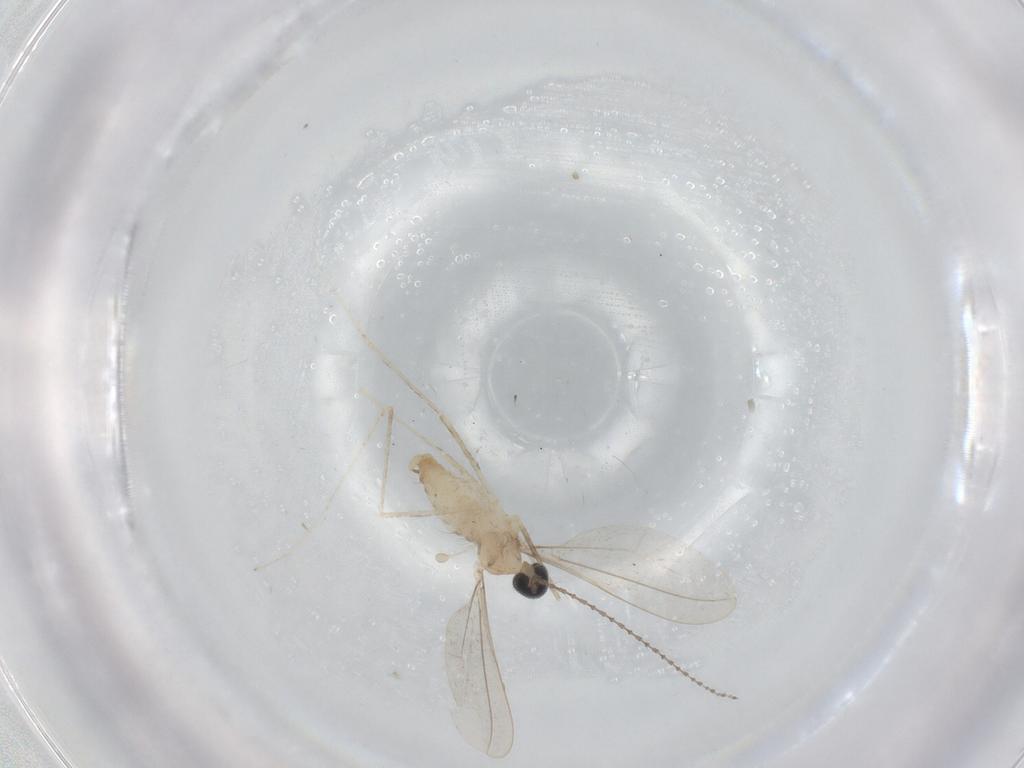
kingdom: Animalia
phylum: Arthropoda
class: Insecta
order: Diptera
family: Cecidomyiidae
